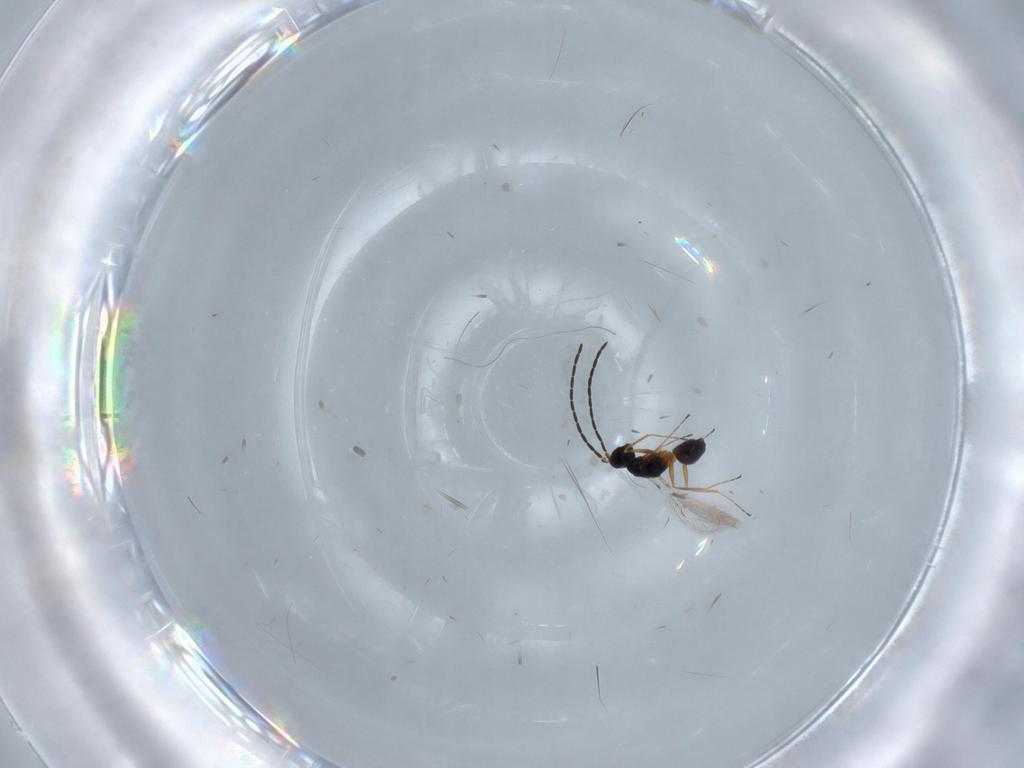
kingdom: Animalia
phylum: Arthropoda
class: Insecta
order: Hymenoptera
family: Mymaridae
